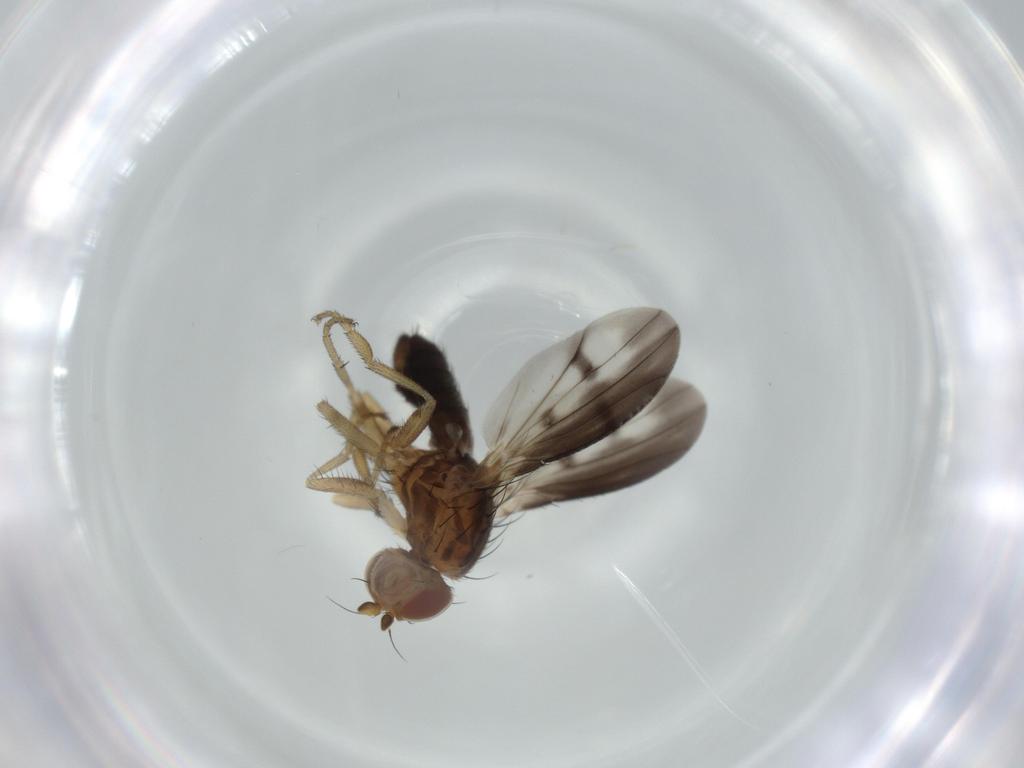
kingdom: Animalia
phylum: Arthropoda
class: Insecta
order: Diptera
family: Heleomyzidae
